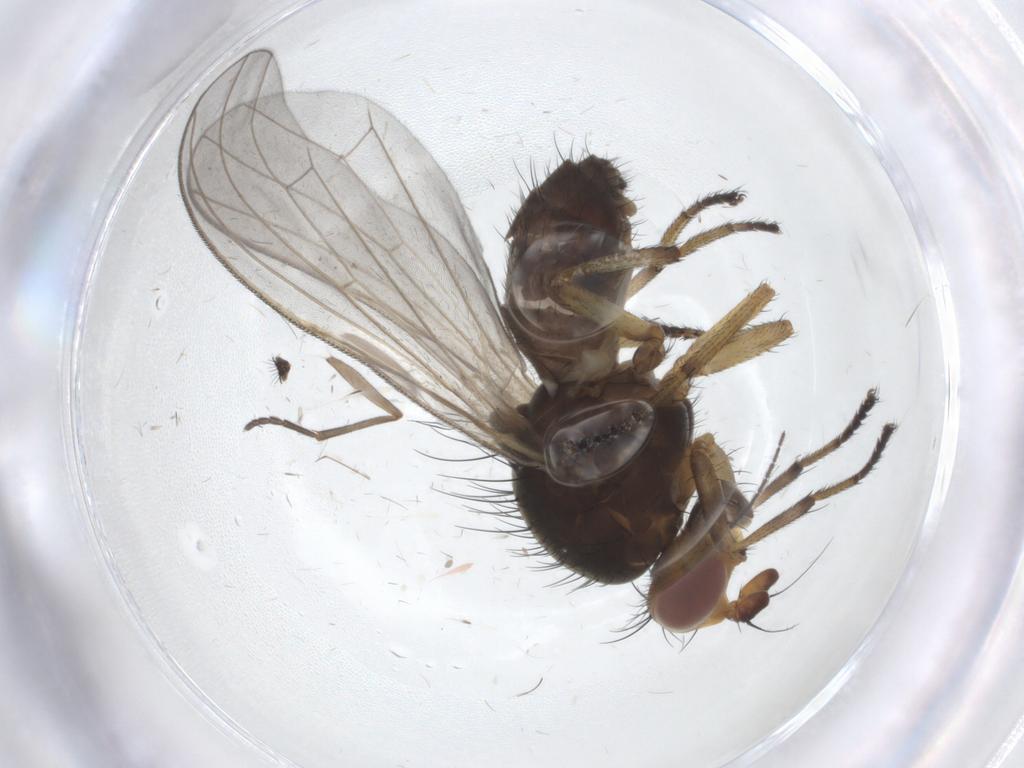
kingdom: Animalia
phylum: Arthropoda
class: Insecta
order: Diptera
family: Sciaridae
